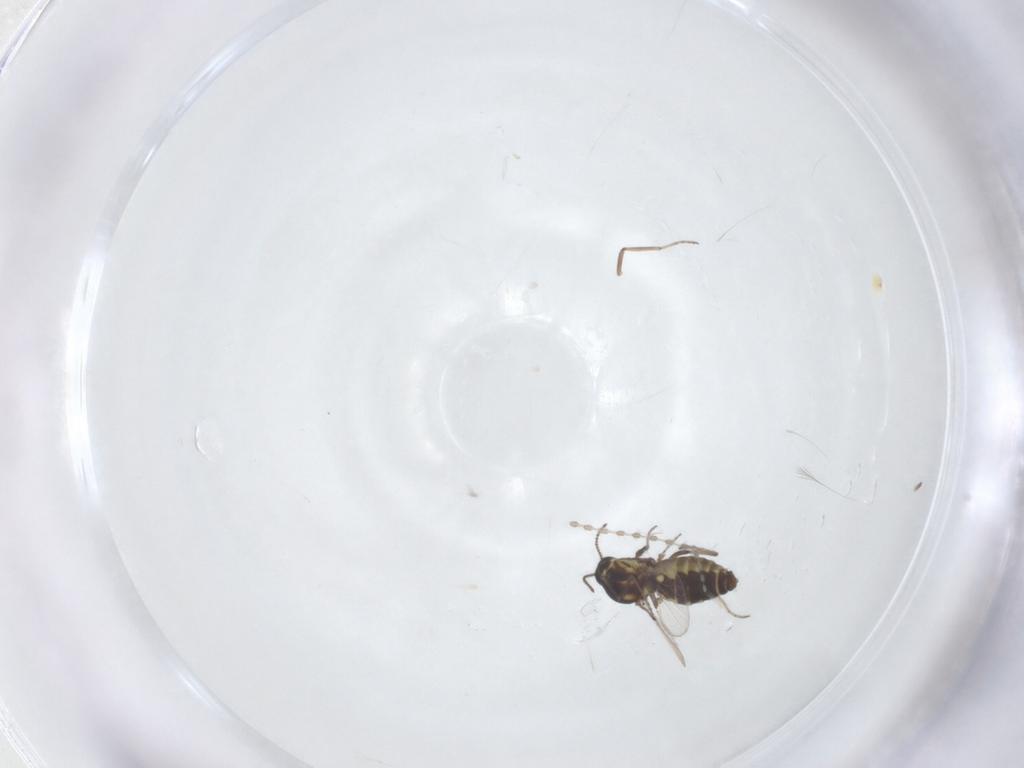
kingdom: Animalia
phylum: Arthropoda
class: Insecta
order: Diptera
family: Ceratopogonidae
